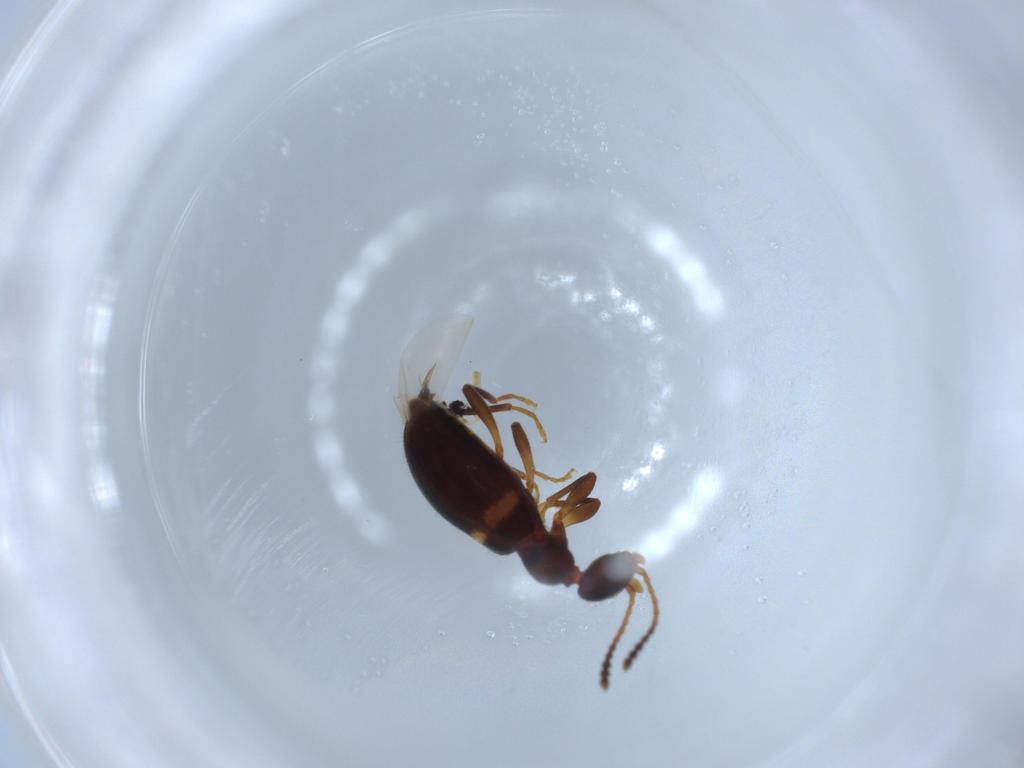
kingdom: Animalia
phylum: Arthropoda
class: Insecta
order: Coleoptera
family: Anthicidae
